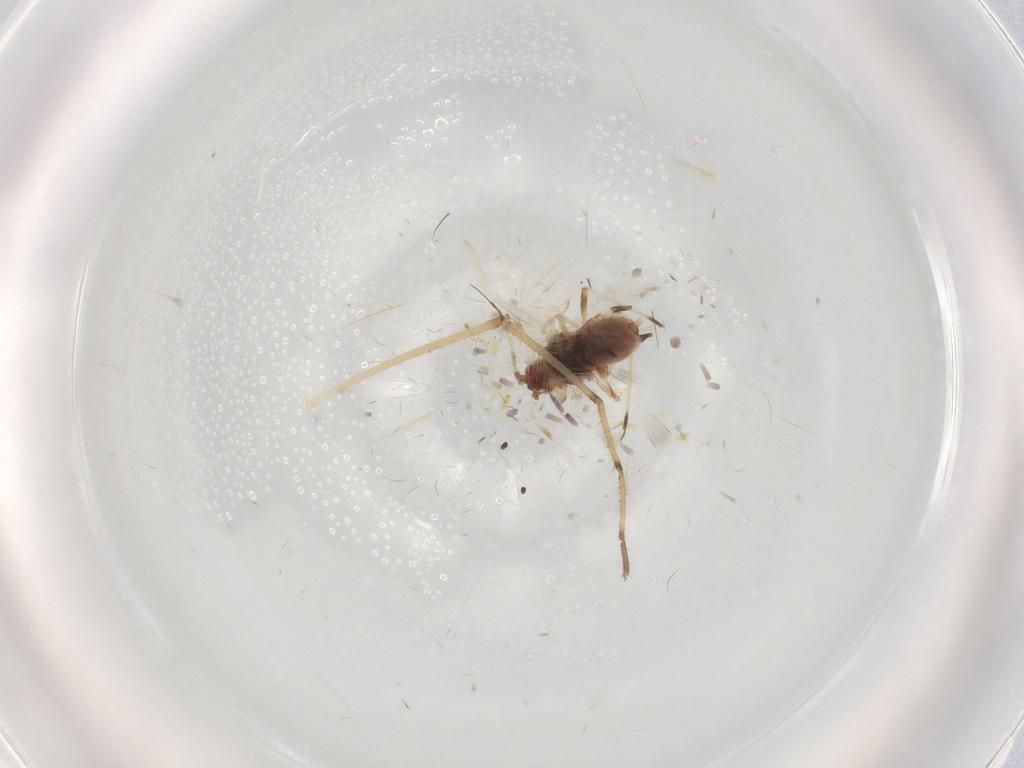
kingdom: Animalia
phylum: Arthropoda
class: Insecta
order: Hemiptera
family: Aphididae
